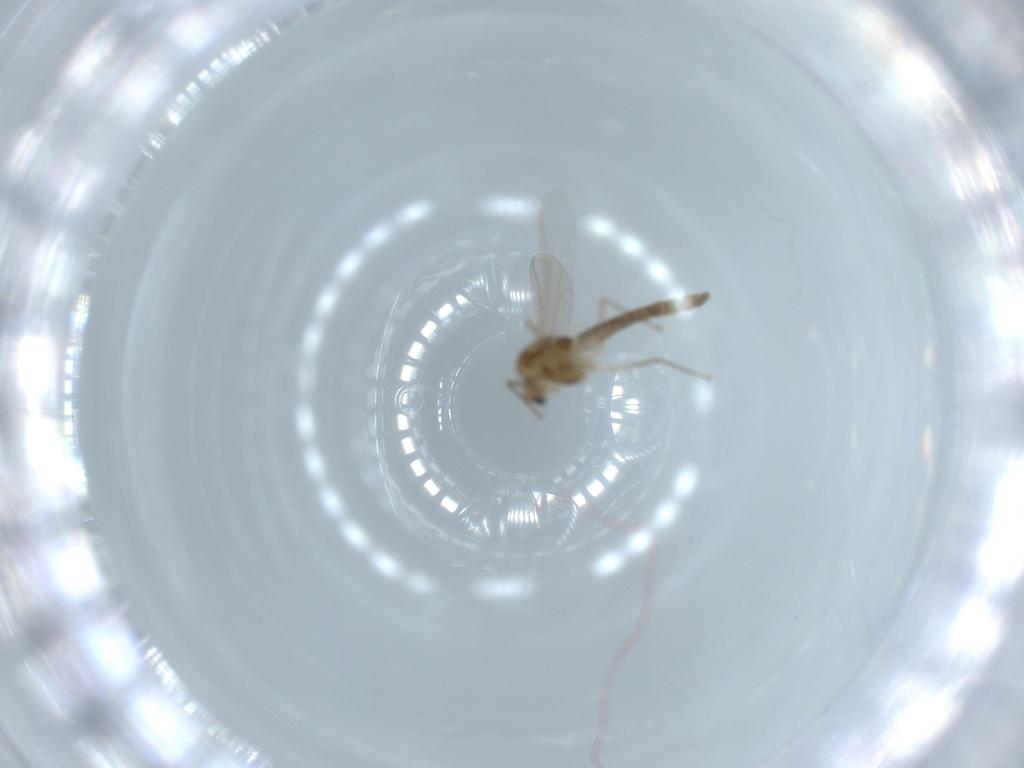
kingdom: Animalia
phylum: Arthropoda
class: Insecta
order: Diptera
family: Chironomidae
